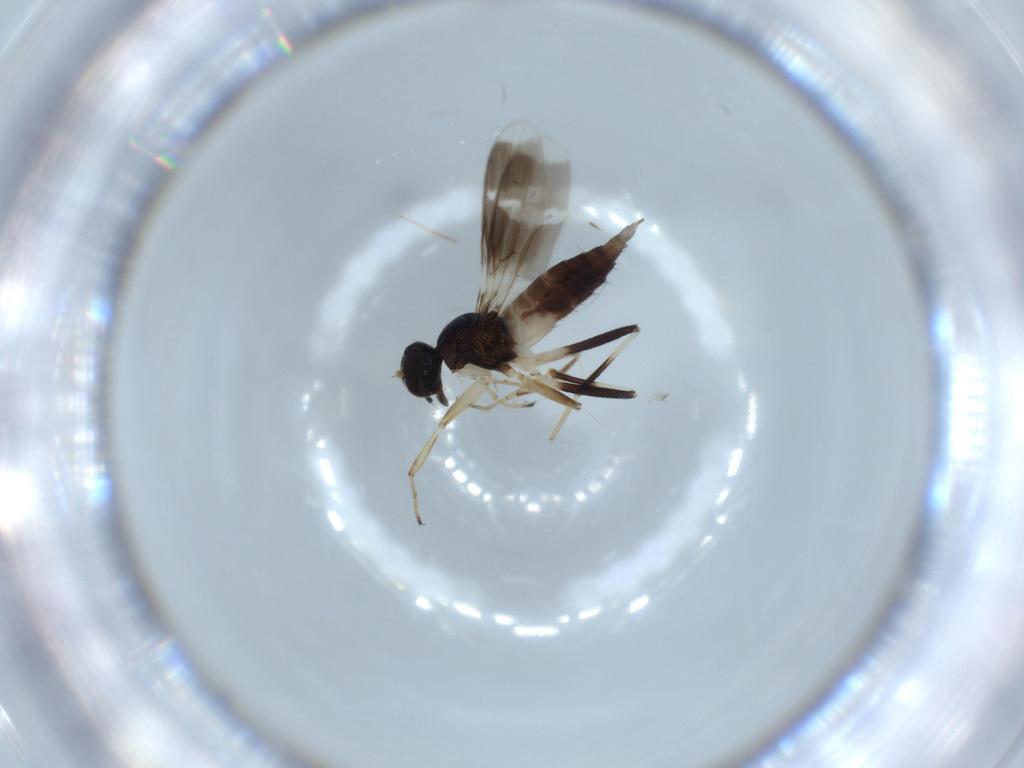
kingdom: Animalia
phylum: Arthropoda
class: Insecta
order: Diptera
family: Hybotidae
